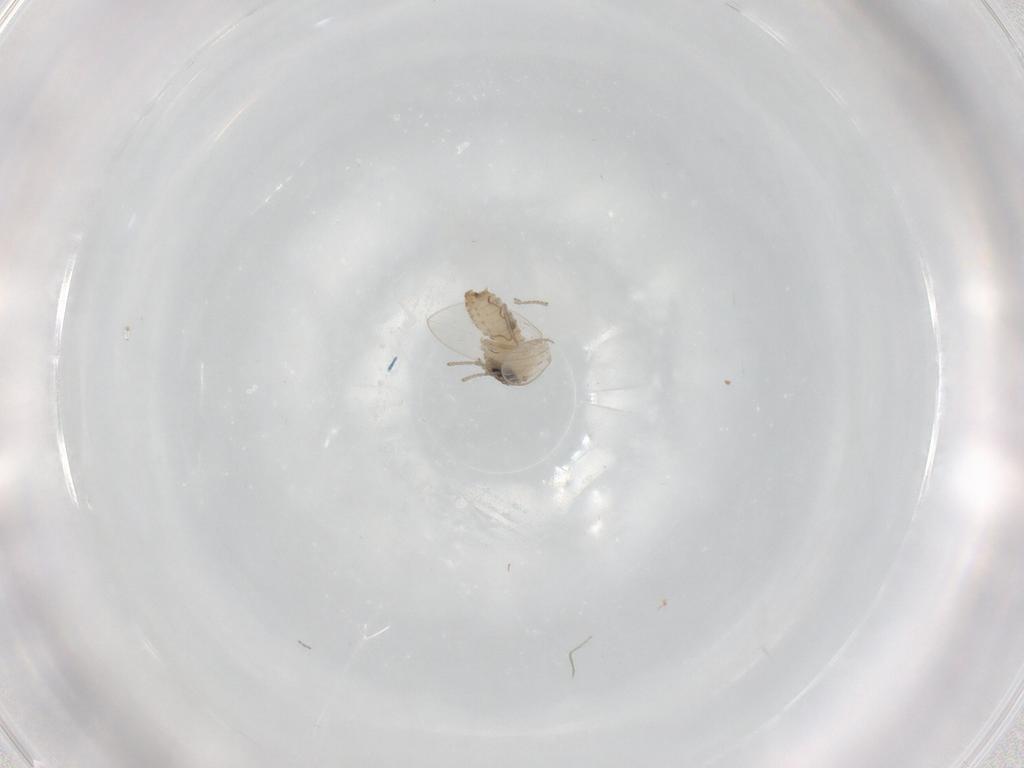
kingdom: Animalia
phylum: Arthropoda
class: Insecta
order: Diptera
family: Psychodidae
